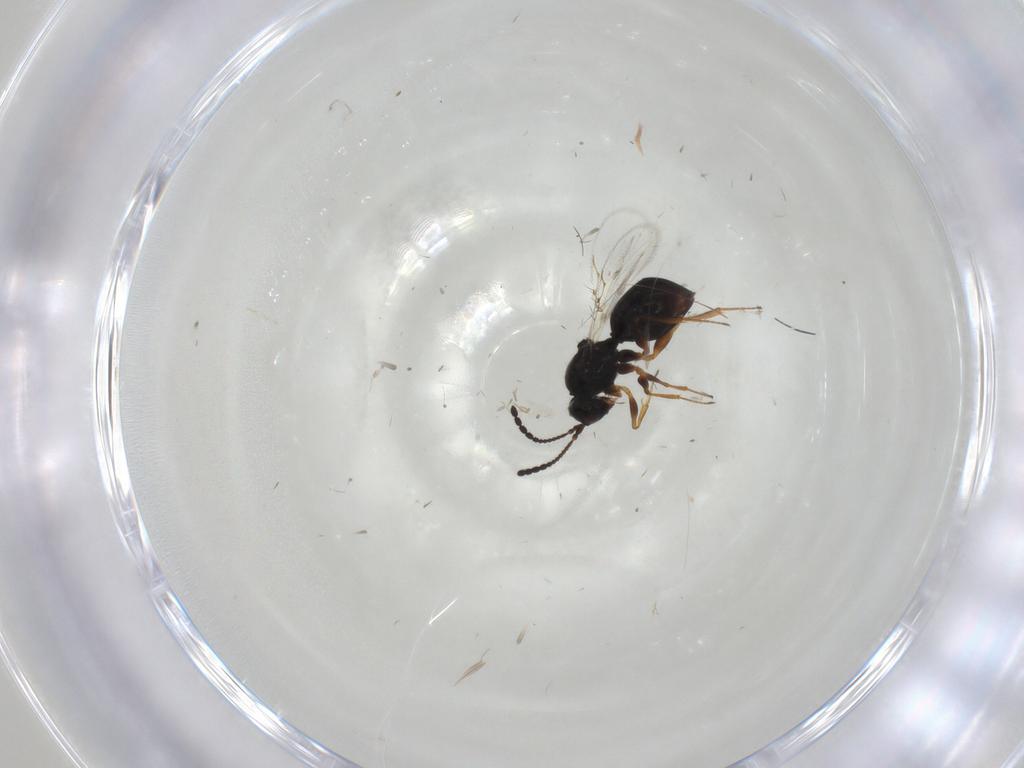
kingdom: Animalia
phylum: Arthropoda
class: Insecta
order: Hymenoptera
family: Figitidae
